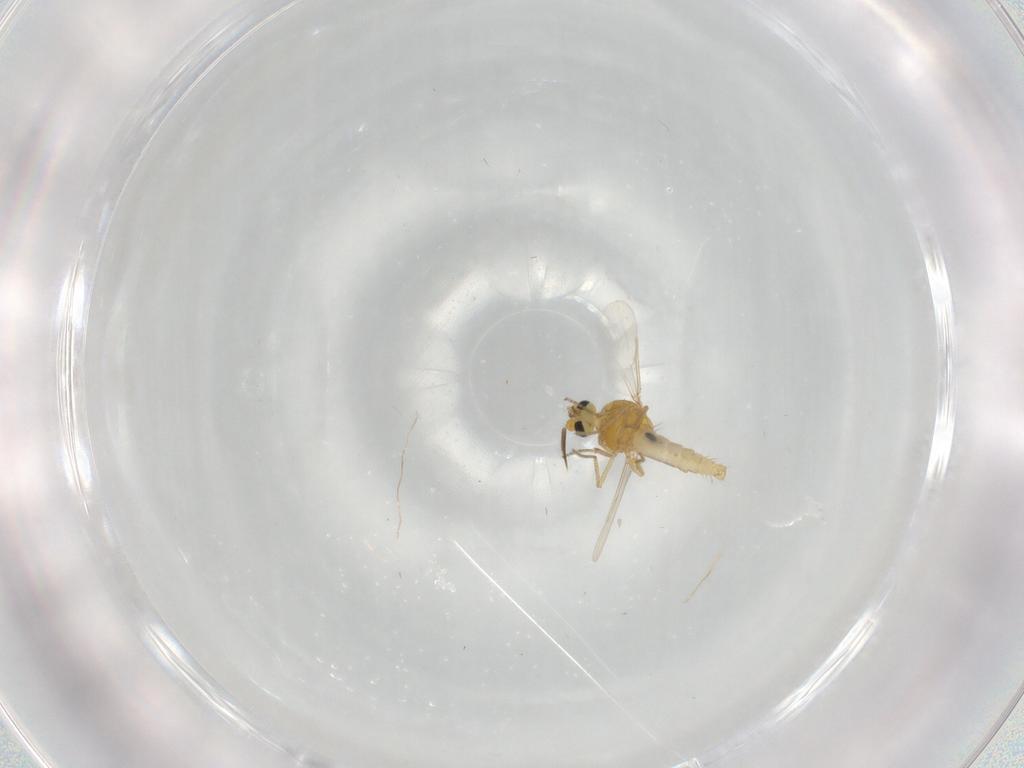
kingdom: Animalia
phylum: Arthropoda
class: Insecta
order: Diptera
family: Ceratopogonidae
